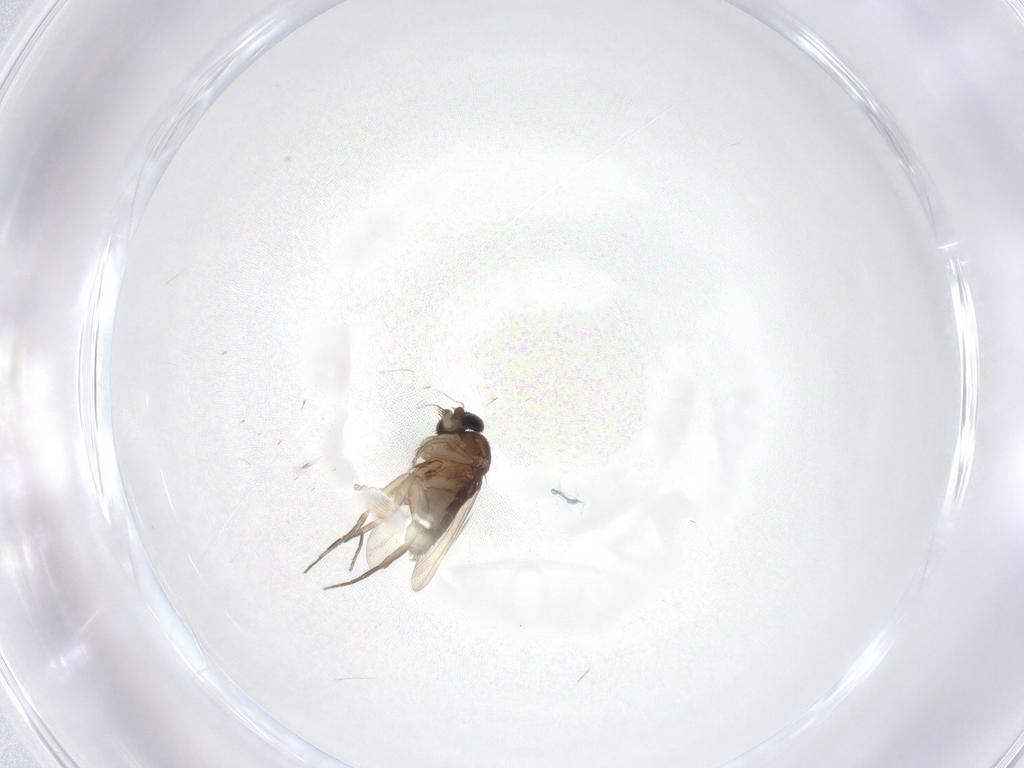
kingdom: Animalia
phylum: Arthropoda
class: Insecta
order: Diptera
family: Phoridae
